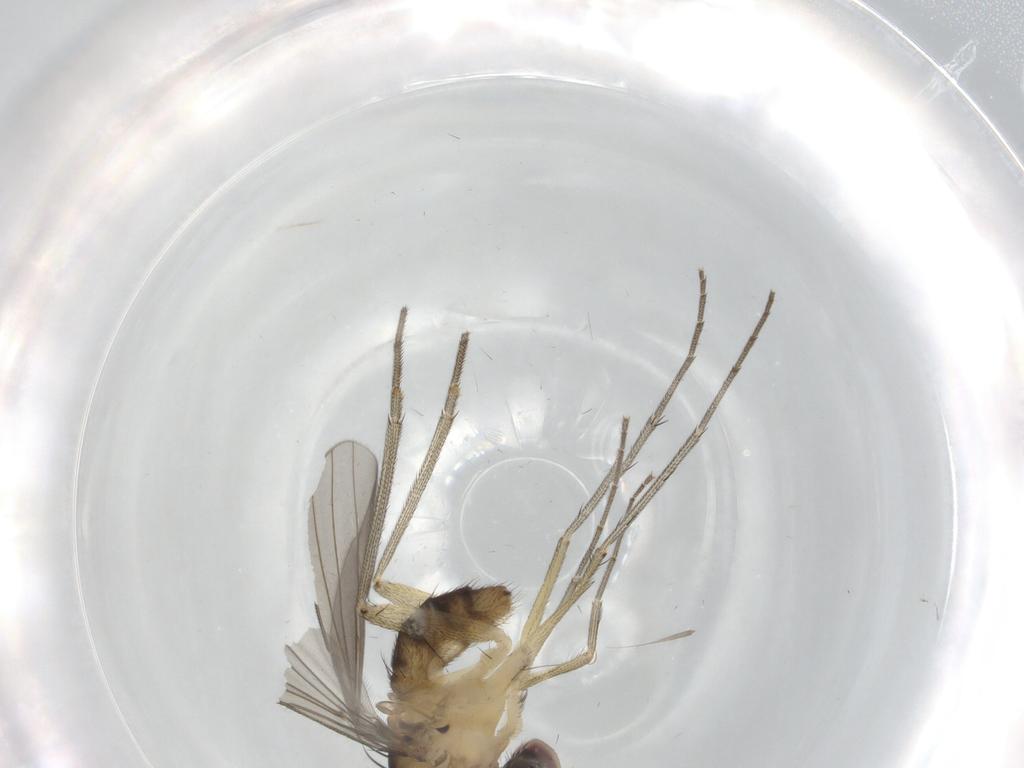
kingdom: Animalia
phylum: Arthropoda
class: Insecta
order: Diptera
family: Dolichopodidae
